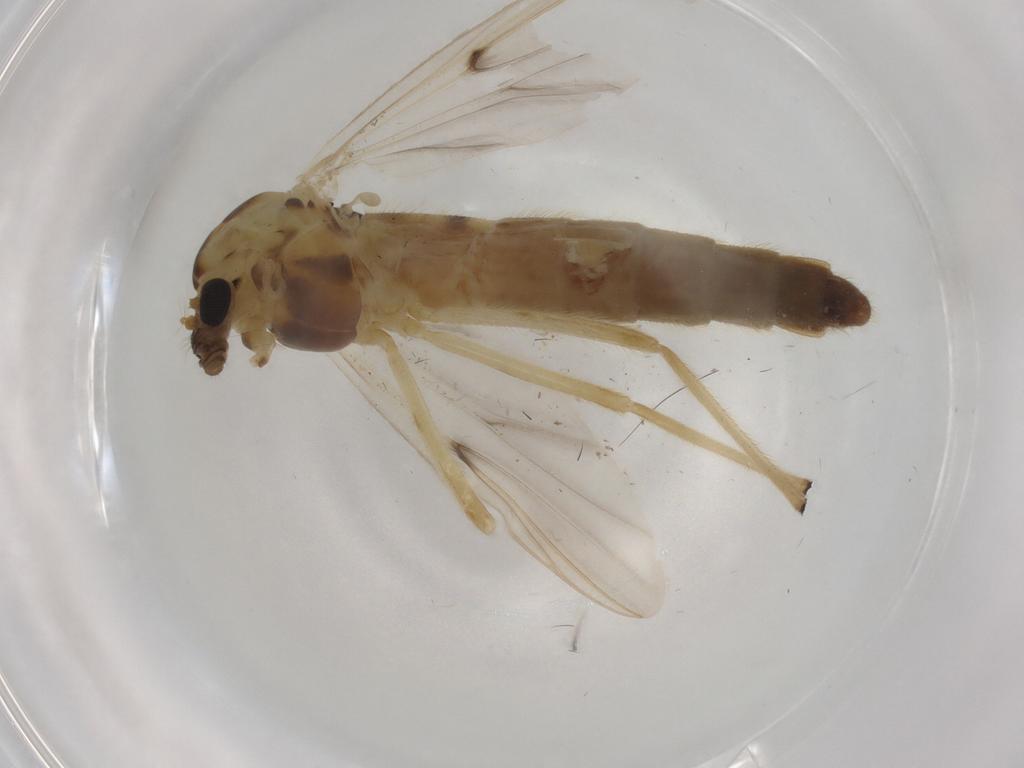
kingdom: Animalia
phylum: Arthropoda
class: Insecta
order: Diptera
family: Chironomidae
